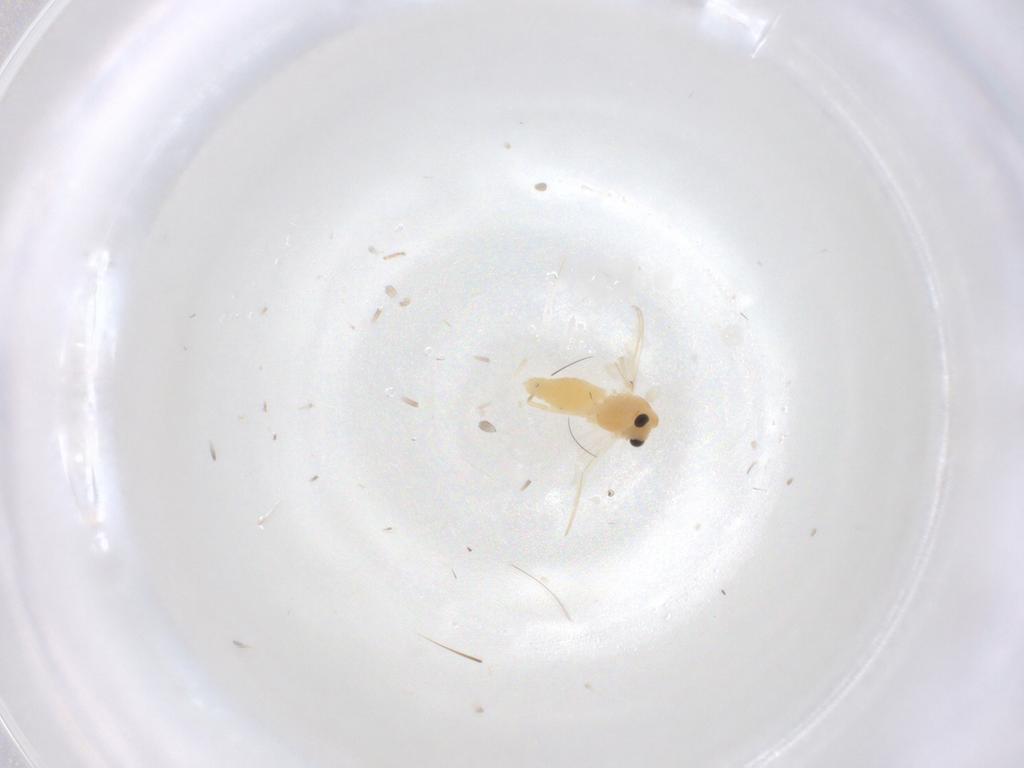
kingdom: Animalia
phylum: Arthropoda
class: Insecta
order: Diptera
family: Chironomidae
